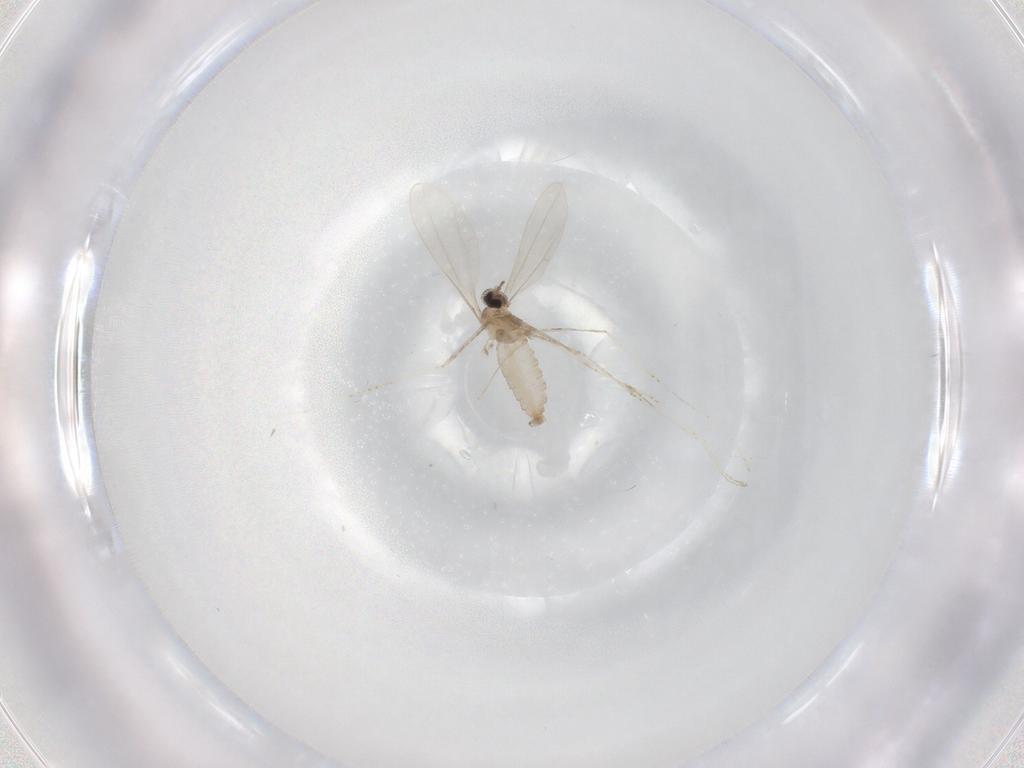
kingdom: Animalia
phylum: Arthropoda
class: Insecta
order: Diptera
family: Cecidomyiidae
